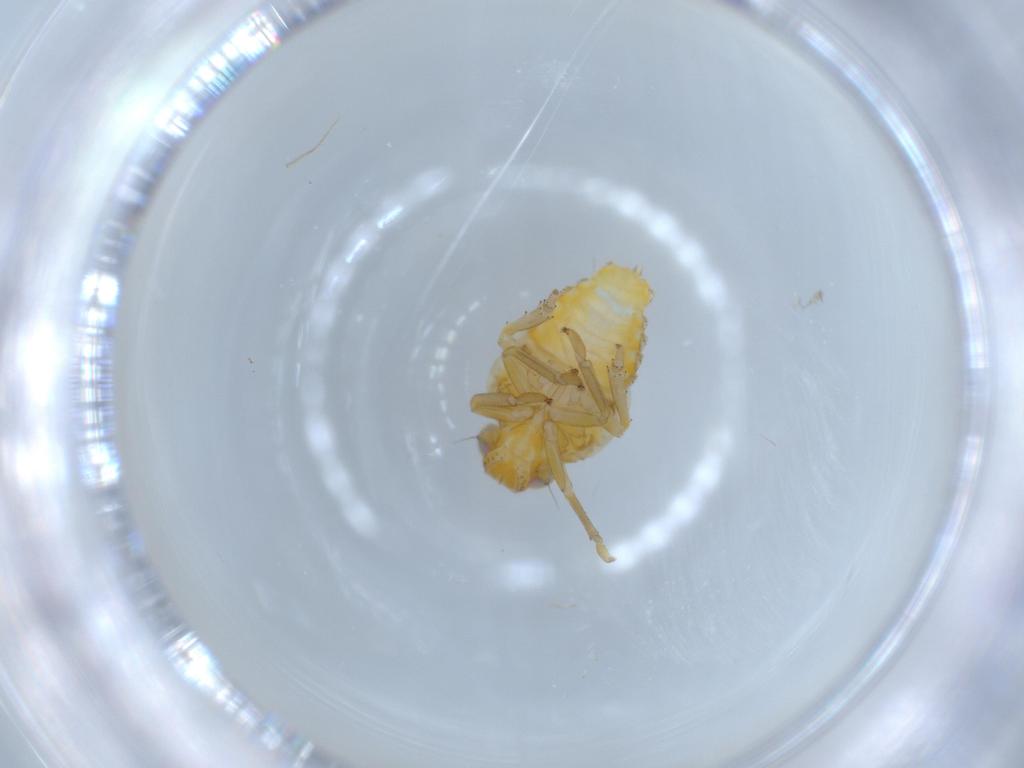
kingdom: Animalia
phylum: Arthropoda
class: Insecta
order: Hemiptera
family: Issidae
